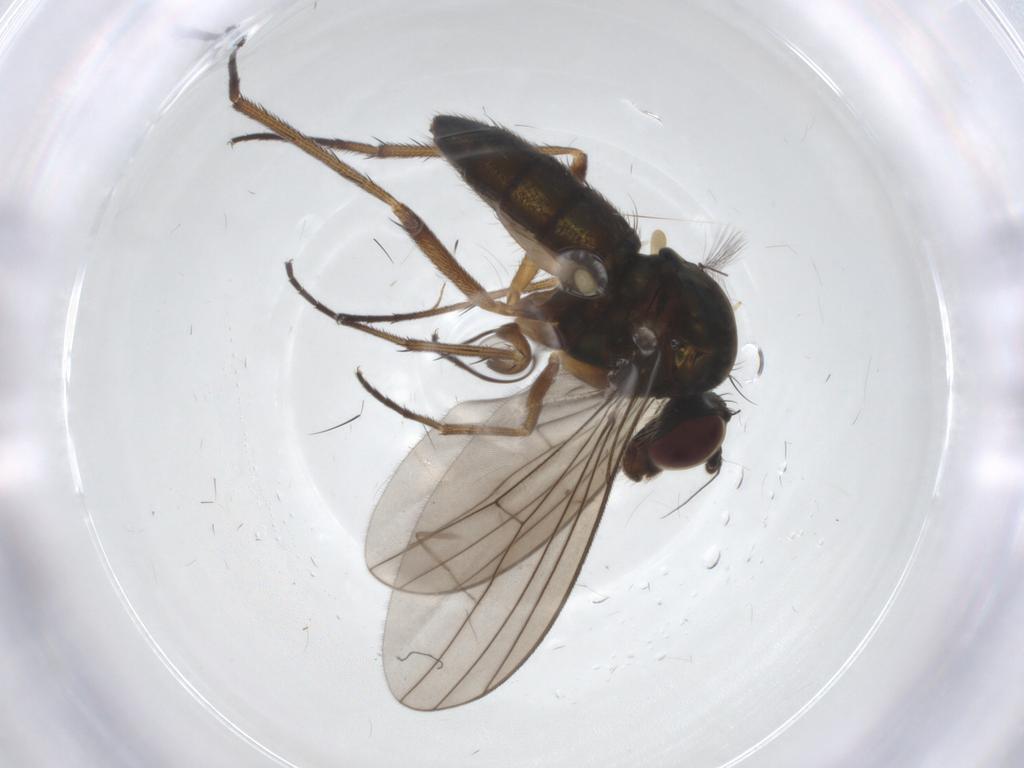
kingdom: Animalia
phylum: Arthropoda
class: Insecta
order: Diptera
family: Dolichopodidae
